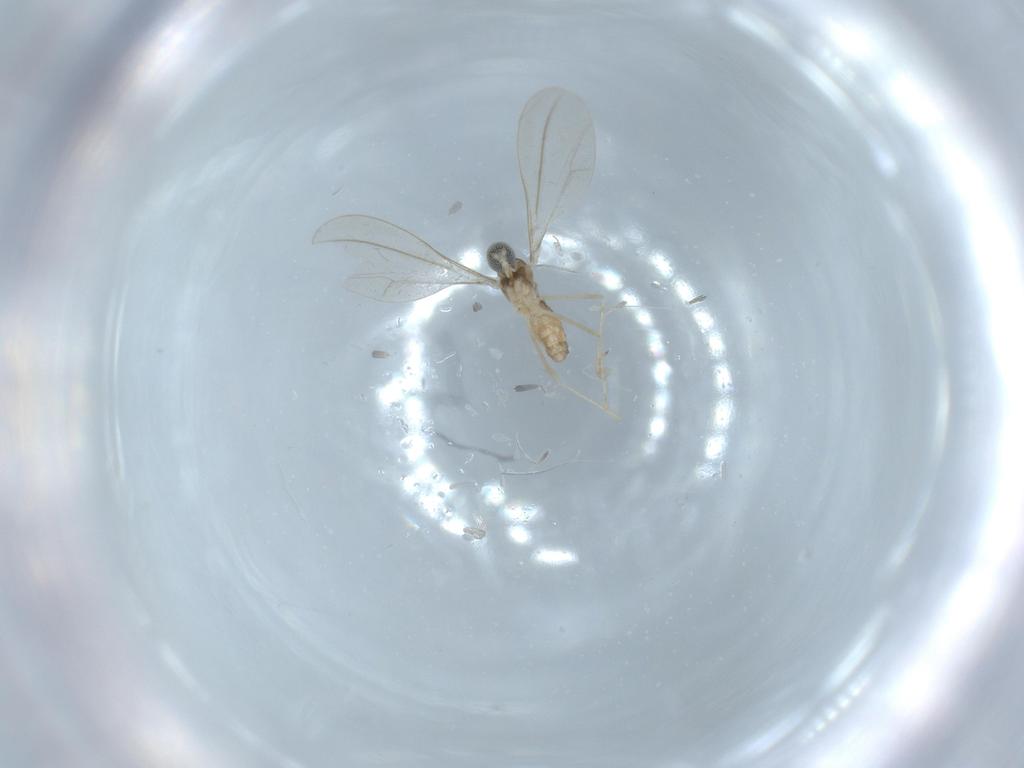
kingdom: Animalia
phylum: Arthropoda
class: Insecta
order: Diptera
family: Cecidomyiidae
